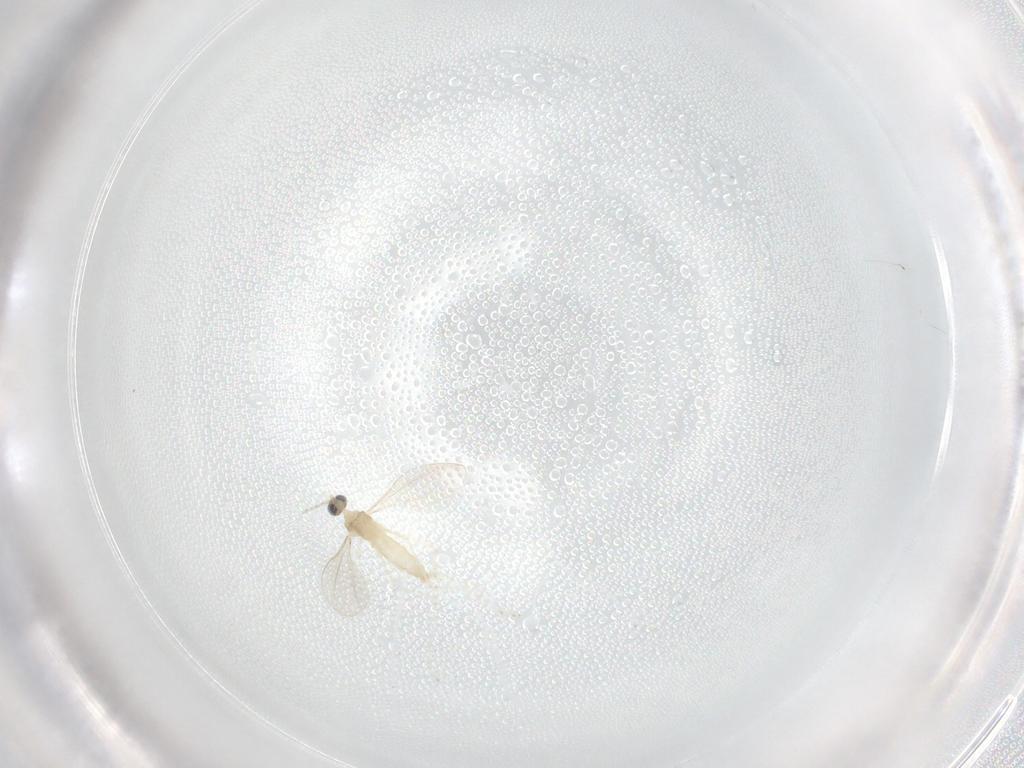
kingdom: Animalia
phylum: Arthropoda
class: Insecta
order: Diptera
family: Cecidomyiidae
